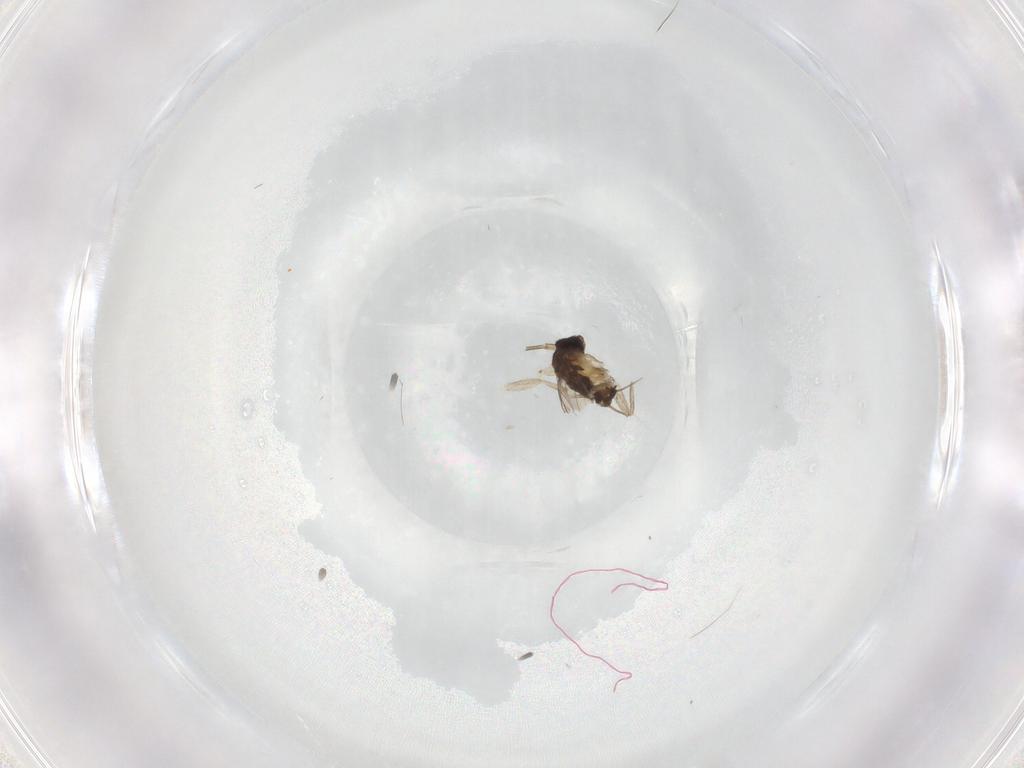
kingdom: Animalia
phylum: Arthropoda
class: Insecta
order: Diptera
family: Phoridae
